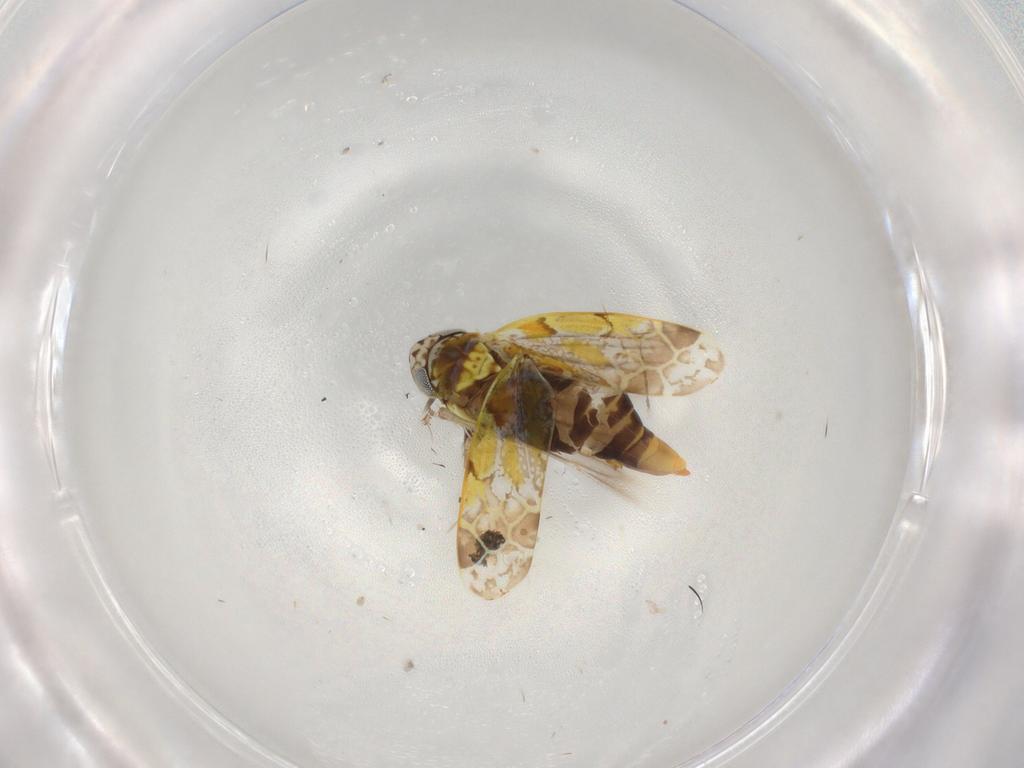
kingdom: Animalia
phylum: Arthropoda
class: Insecta
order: Hemiptera
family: Cicadellidae
